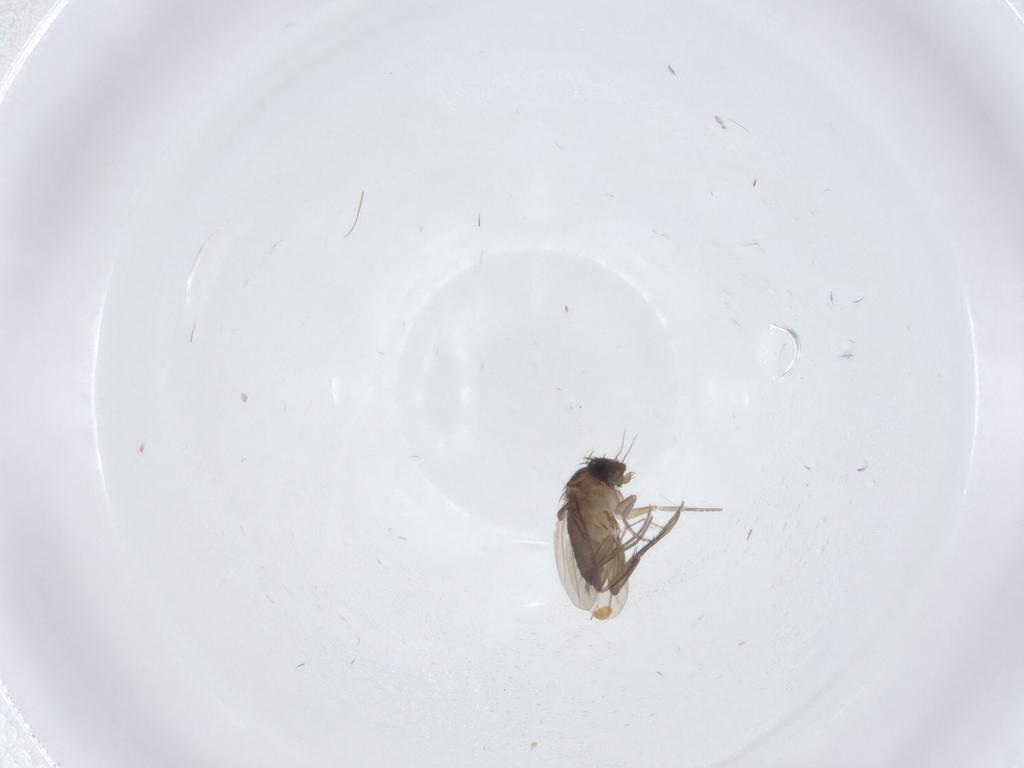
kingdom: Animalia
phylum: Arthropoda
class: Insecta
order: Diptera
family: Phoridae
